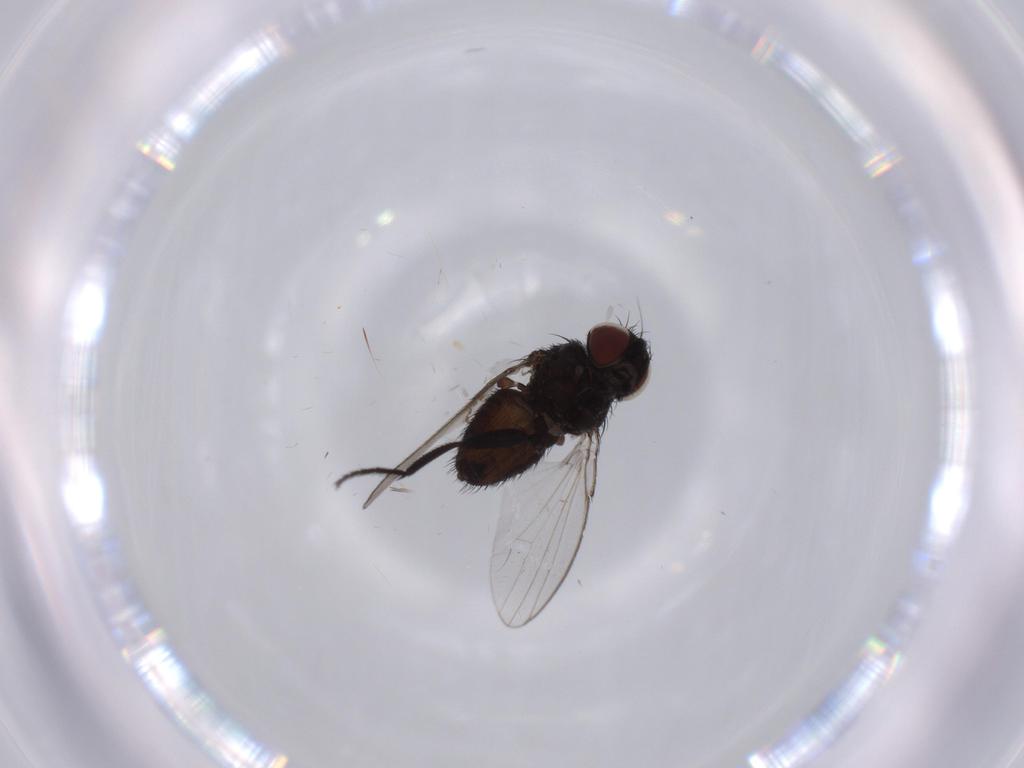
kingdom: Animalia
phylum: Arthropoda
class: Insecta
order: Diptera
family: Milichiidae
